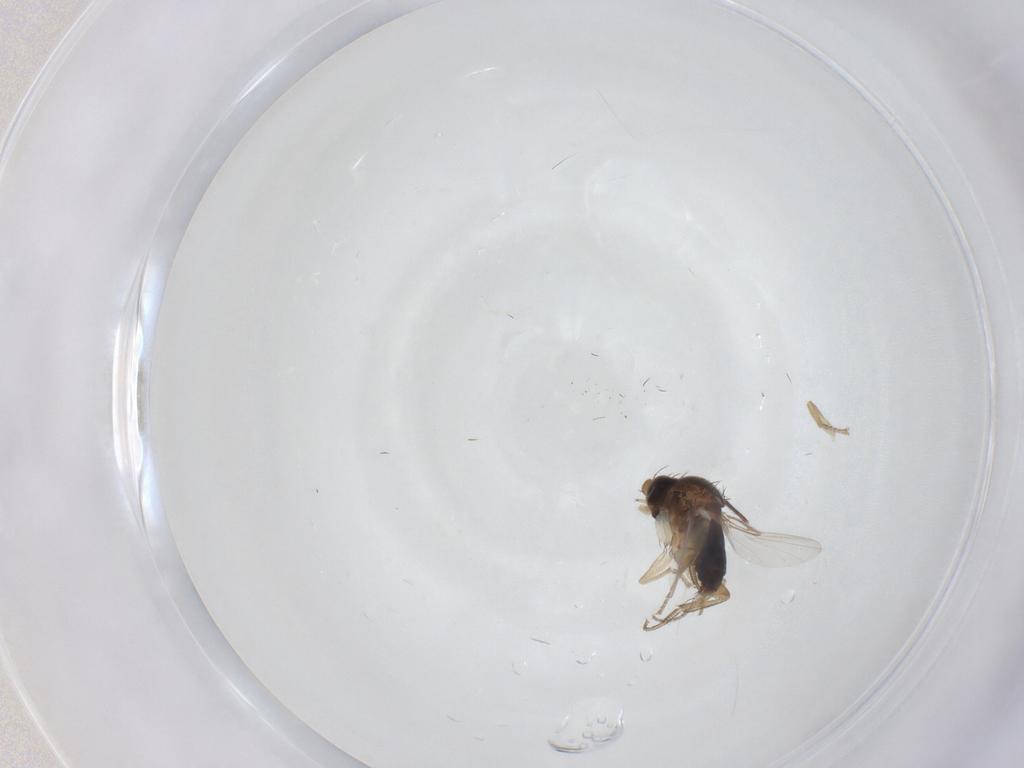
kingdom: Animalia
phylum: Arthropoda
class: Insecta
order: Diptera
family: Carnidae
